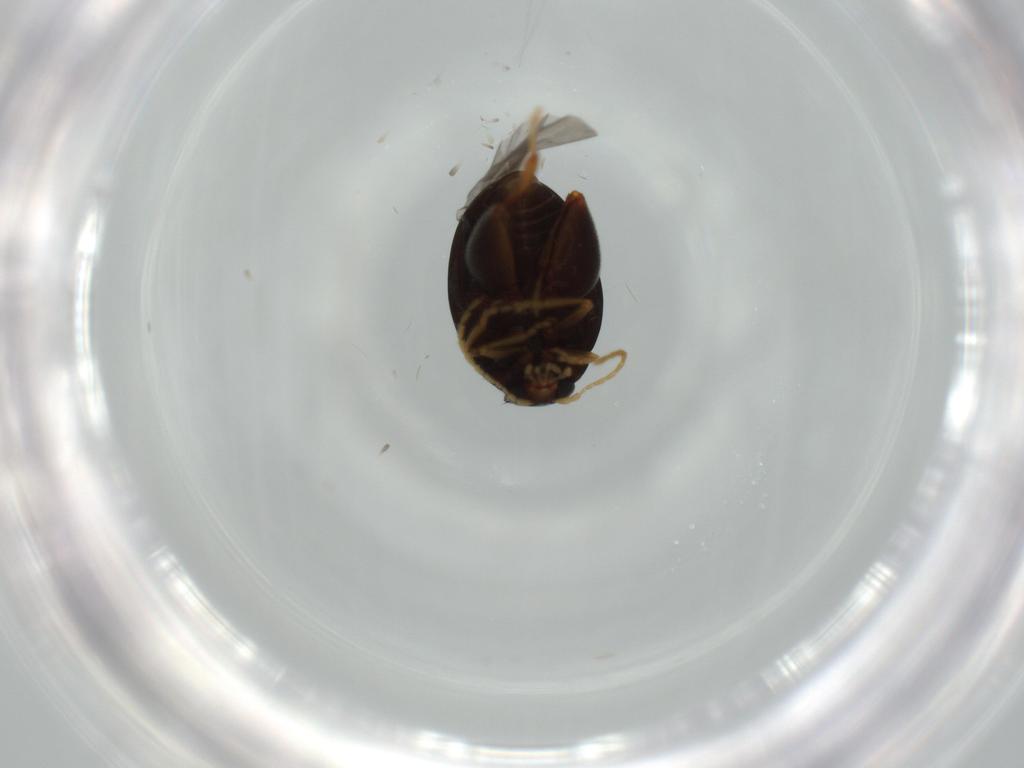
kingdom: Animalia
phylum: Arthropoda
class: Insecta
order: Coleoptera
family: Chrysomelidae
